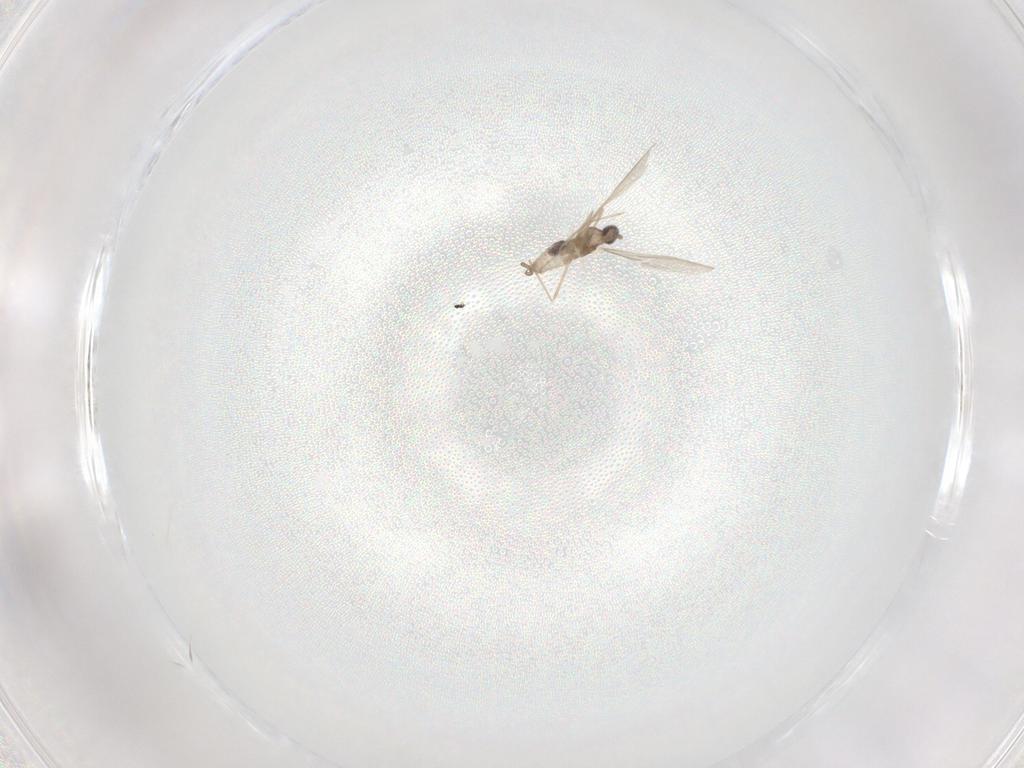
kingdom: Animalia
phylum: Arthropoda
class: Insecta
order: Diptera
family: Cecidomyiidae
